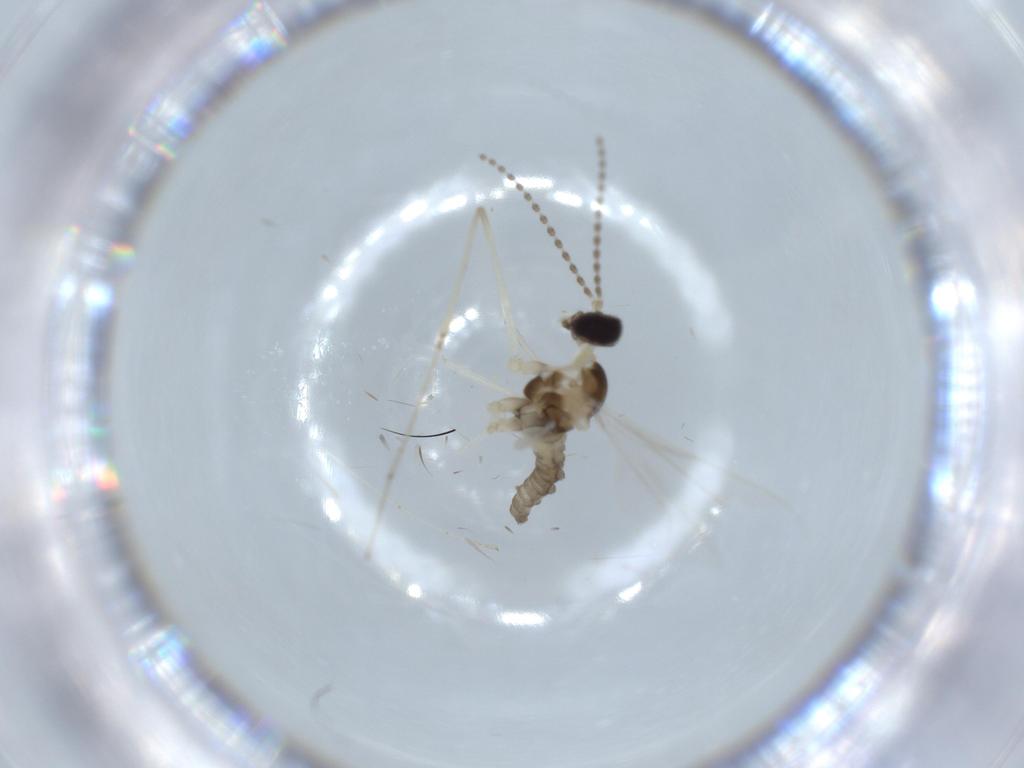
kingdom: Animalia
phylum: Arthropoda
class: Insecta
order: Diptera
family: Cecidomyiidae
